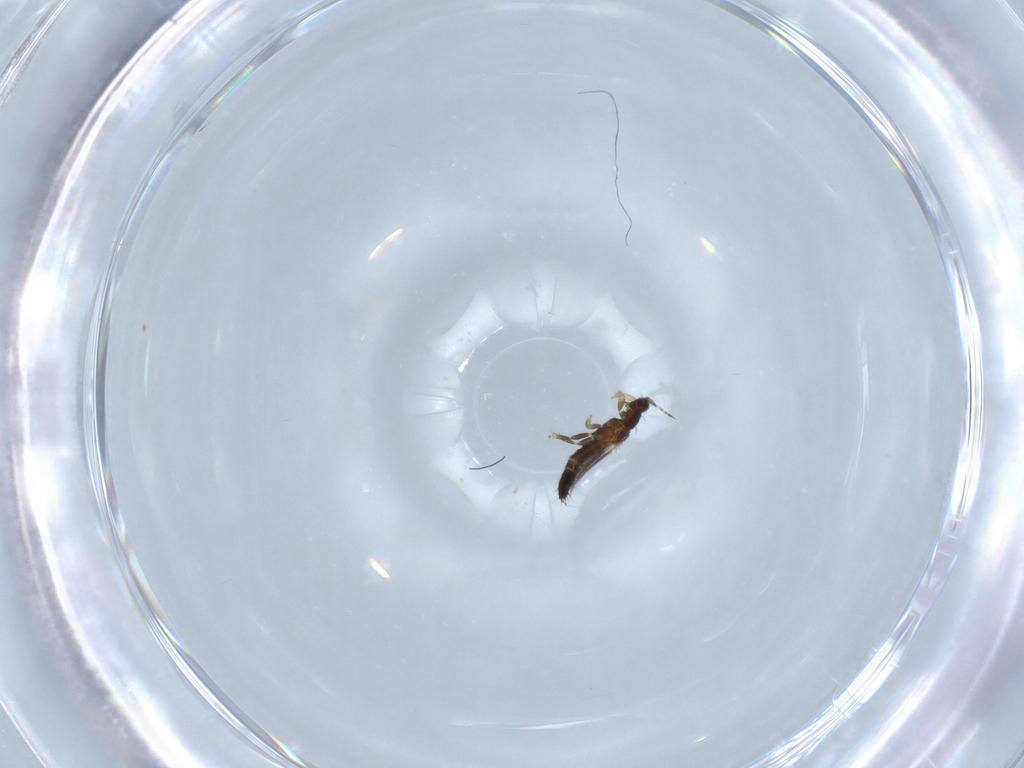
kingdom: Animalia
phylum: Arthropoda
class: Insecta
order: Thysanoptera
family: Thripidae
